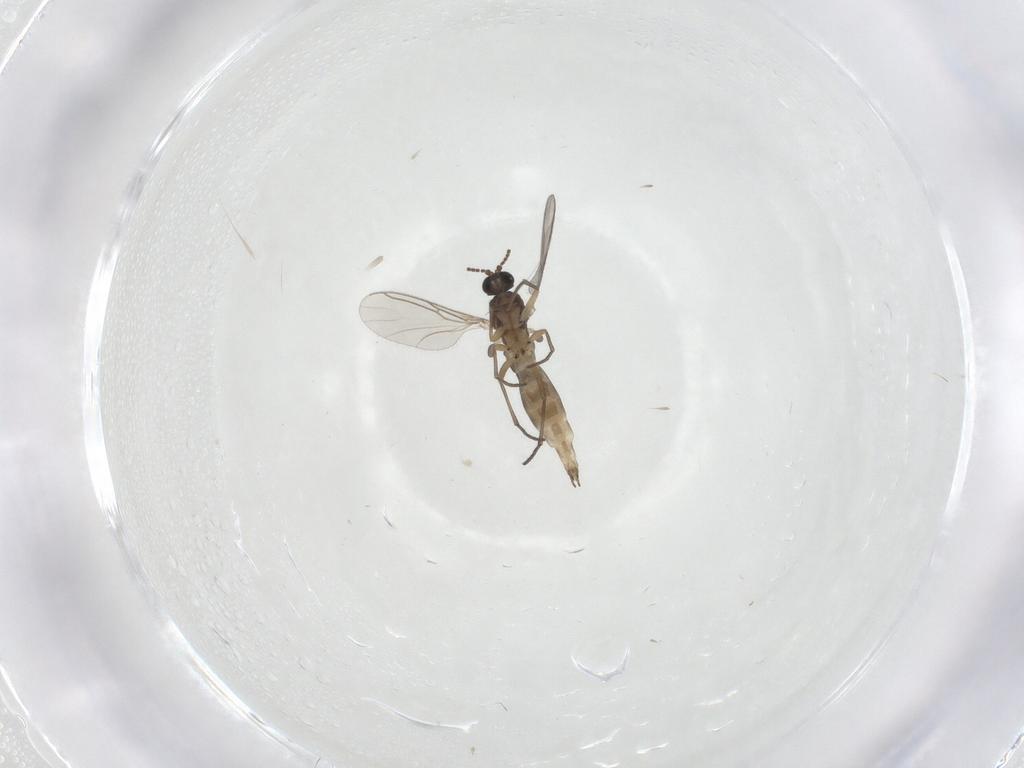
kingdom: Animalia
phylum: Arthropoda
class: Insecta
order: Diptera
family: Sciaridae
